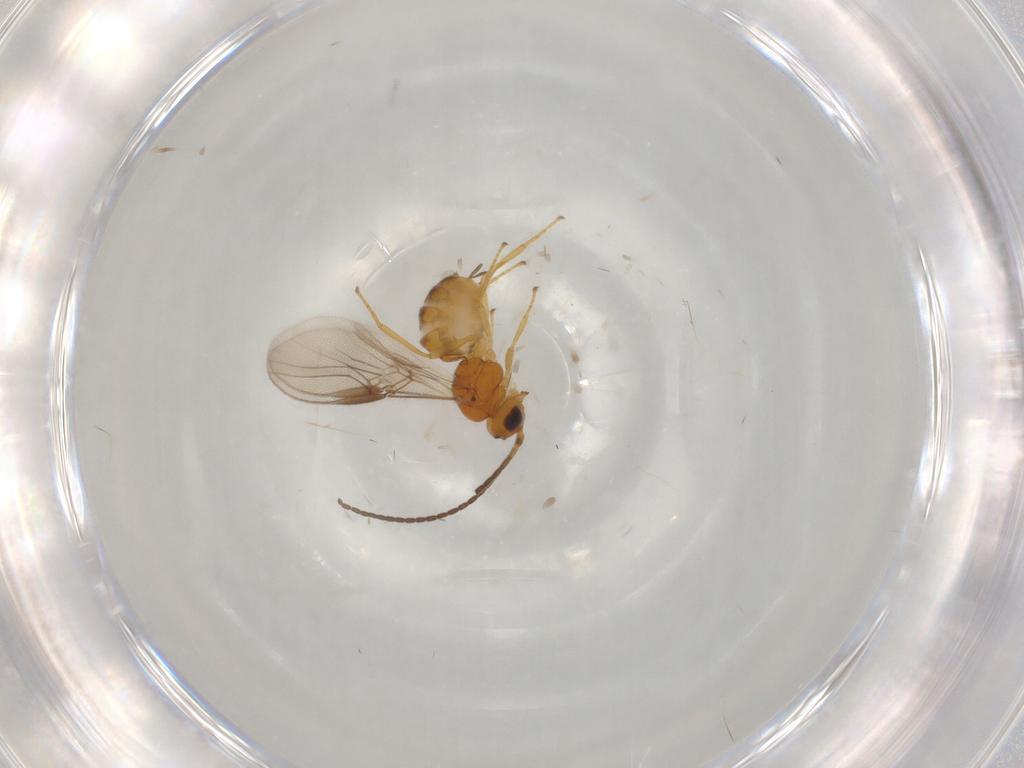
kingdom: Animalia
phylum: Arthropoda
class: Insecta
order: Hymenoptera
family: Braconidae
